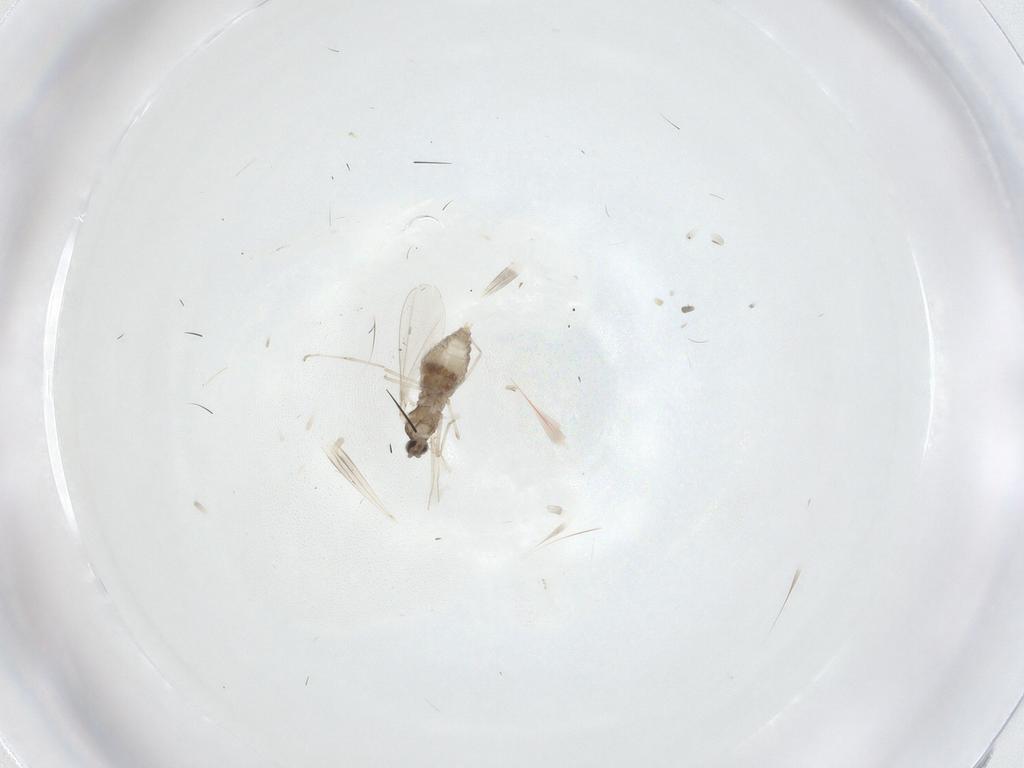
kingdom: Animalia
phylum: Arthropoda
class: Insecta
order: Diptera
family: Cecidomyiidae
